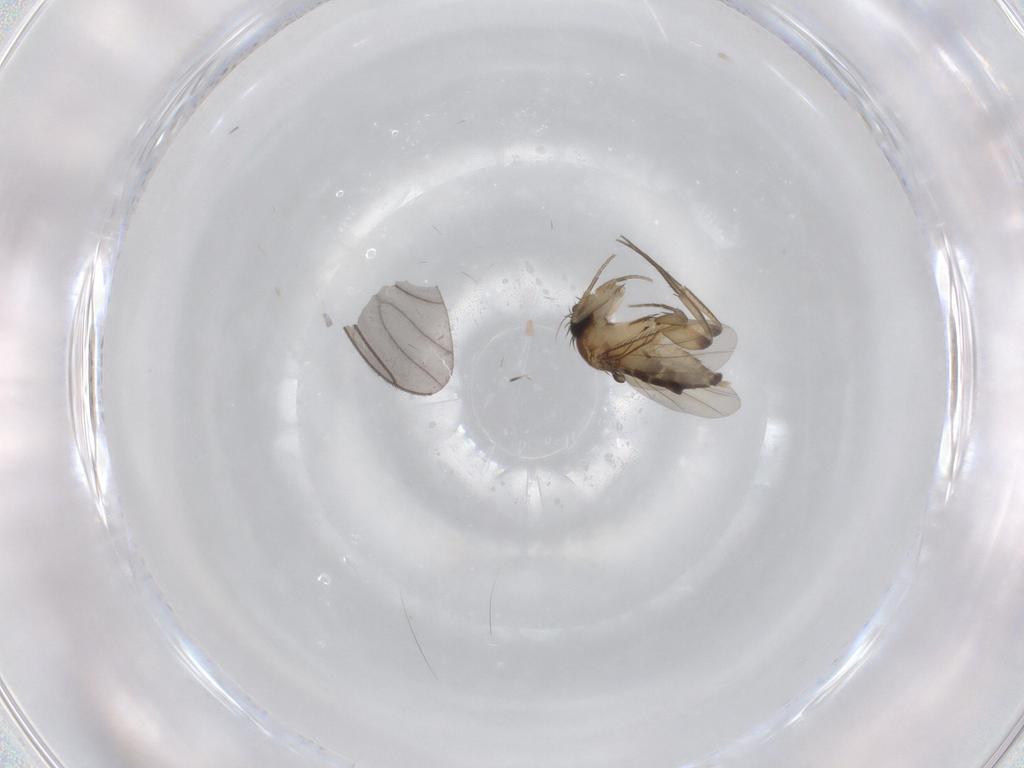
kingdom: Animalia
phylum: Arthropoda
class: Insecta
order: Diptera
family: Phoridae
